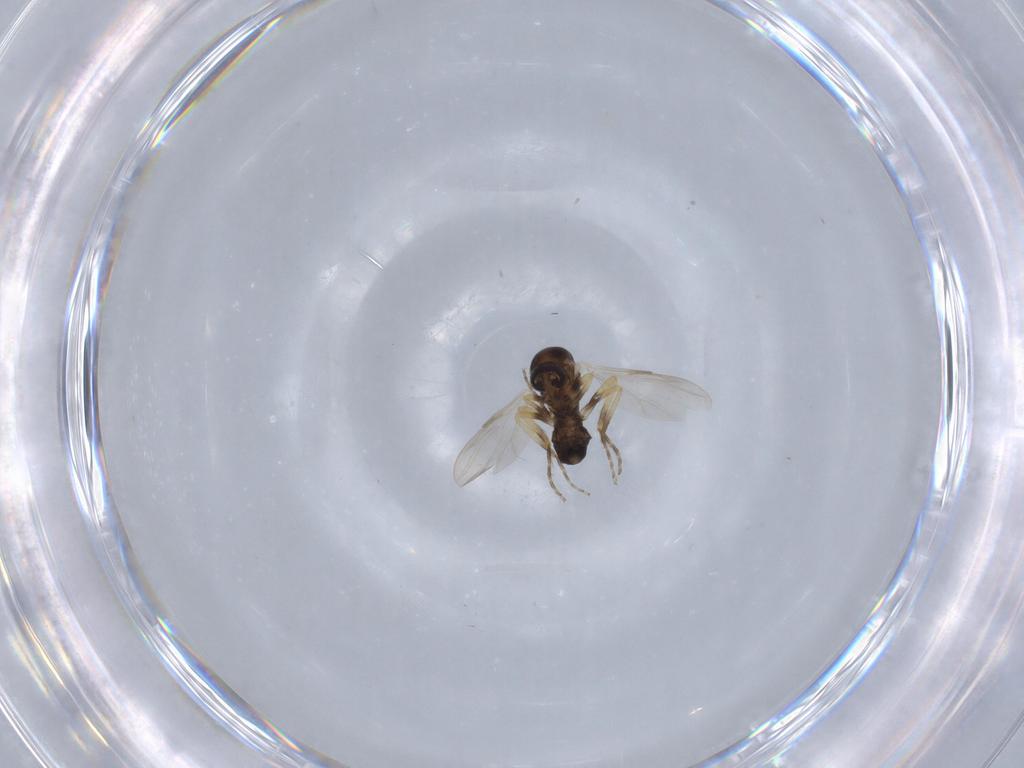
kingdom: Animalia
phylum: Arthropoda
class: Insecta
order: Diptera
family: Ceratopogonidae
